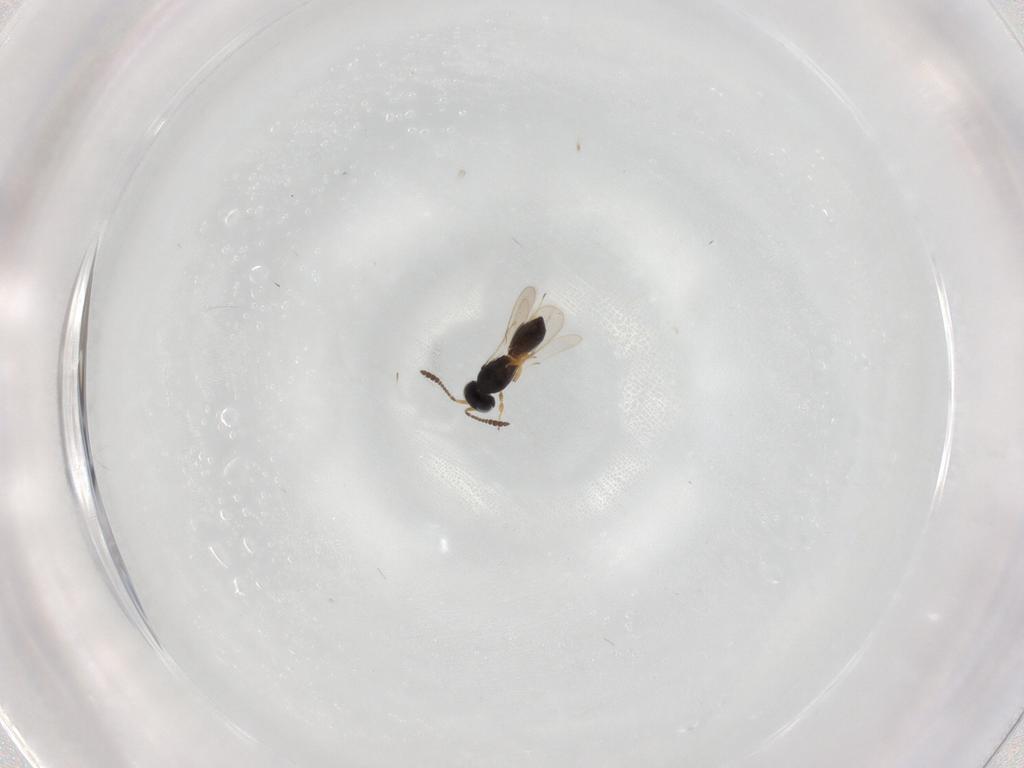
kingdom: Animalia
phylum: Arthropoda
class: Insecta
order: Hymenoptera
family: Scelionidae
